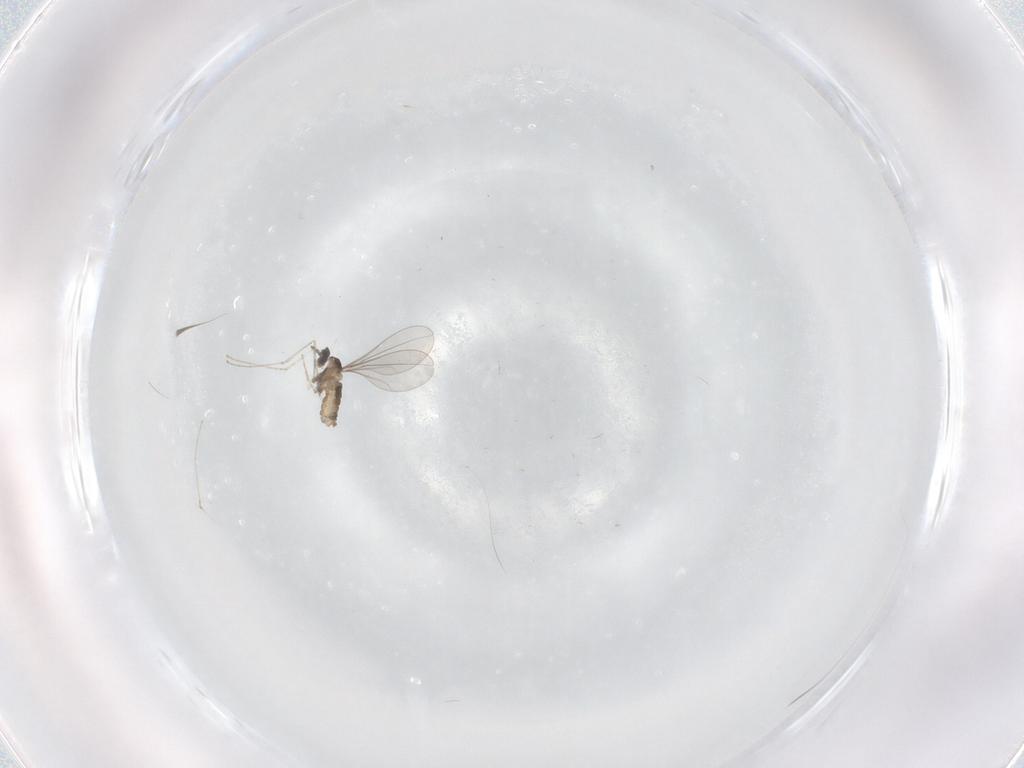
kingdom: Animalia
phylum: Arthropoda
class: Insecta
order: Diptera
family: Cecidomyiidae
